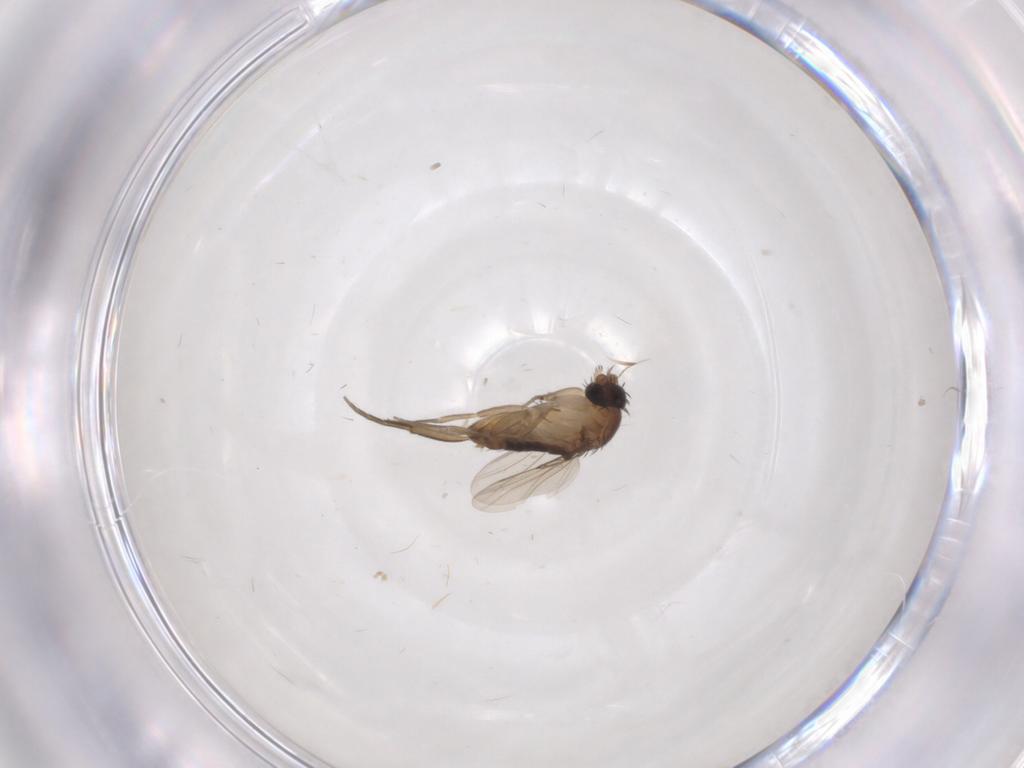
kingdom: Animalia
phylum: Arthropoda
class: Insecta
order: Diptera
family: Phoridae
